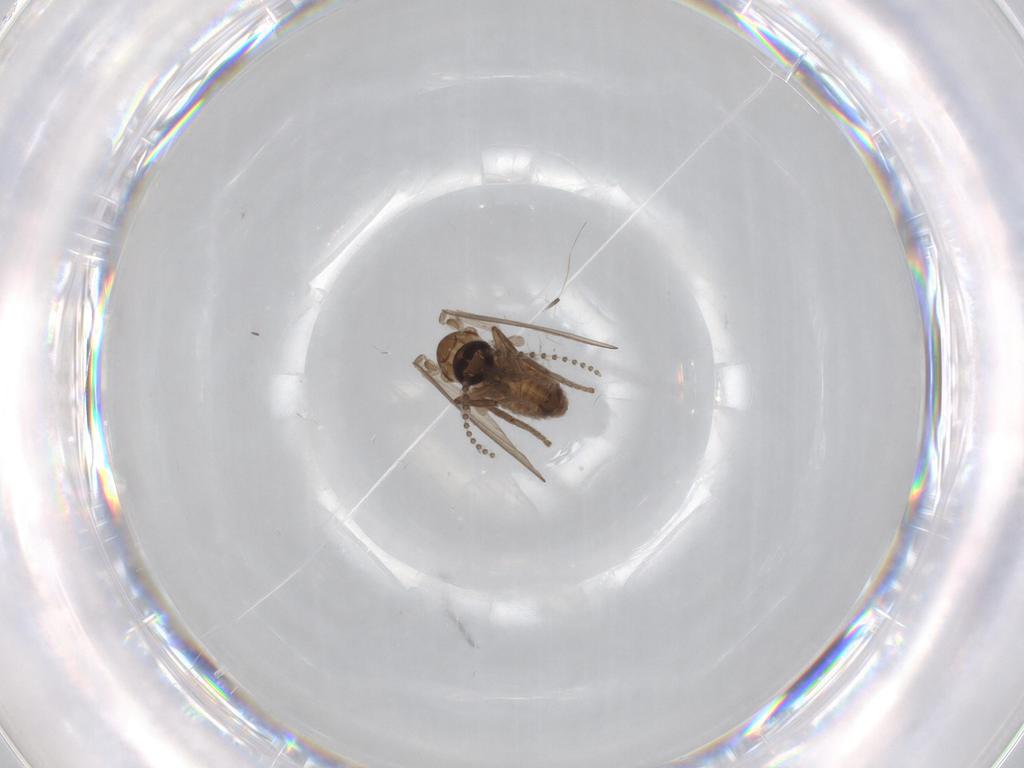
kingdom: Animalia
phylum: Arthropoda
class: Insecta
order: Diptera
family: Psychodidae
